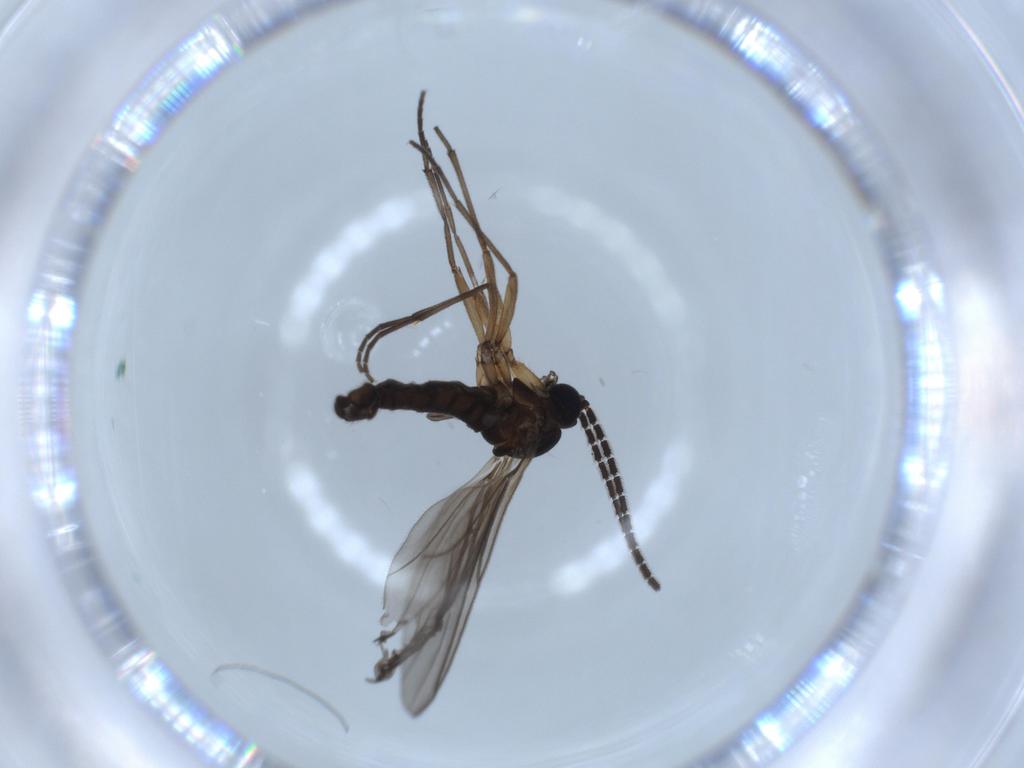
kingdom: Animalia
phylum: Arthropoda
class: Insecta
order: Diptera
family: Sciaridae
